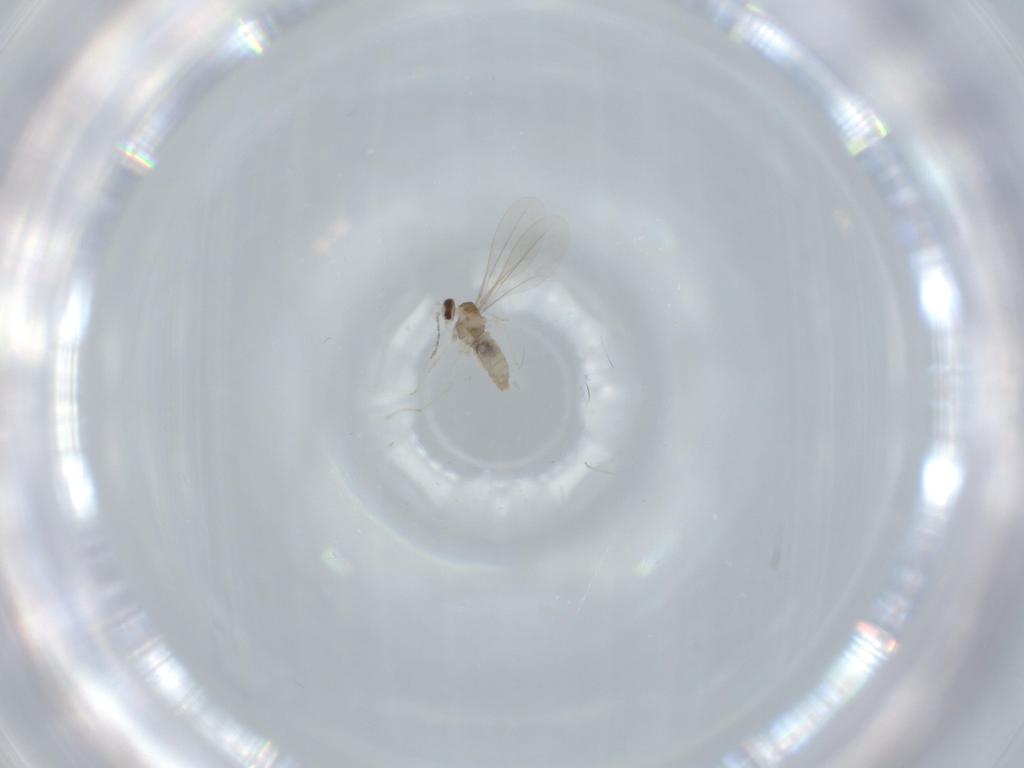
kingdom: Animalia
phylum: Arthropoda
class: Insecta
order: Diptera
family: Cecidomyiidae
